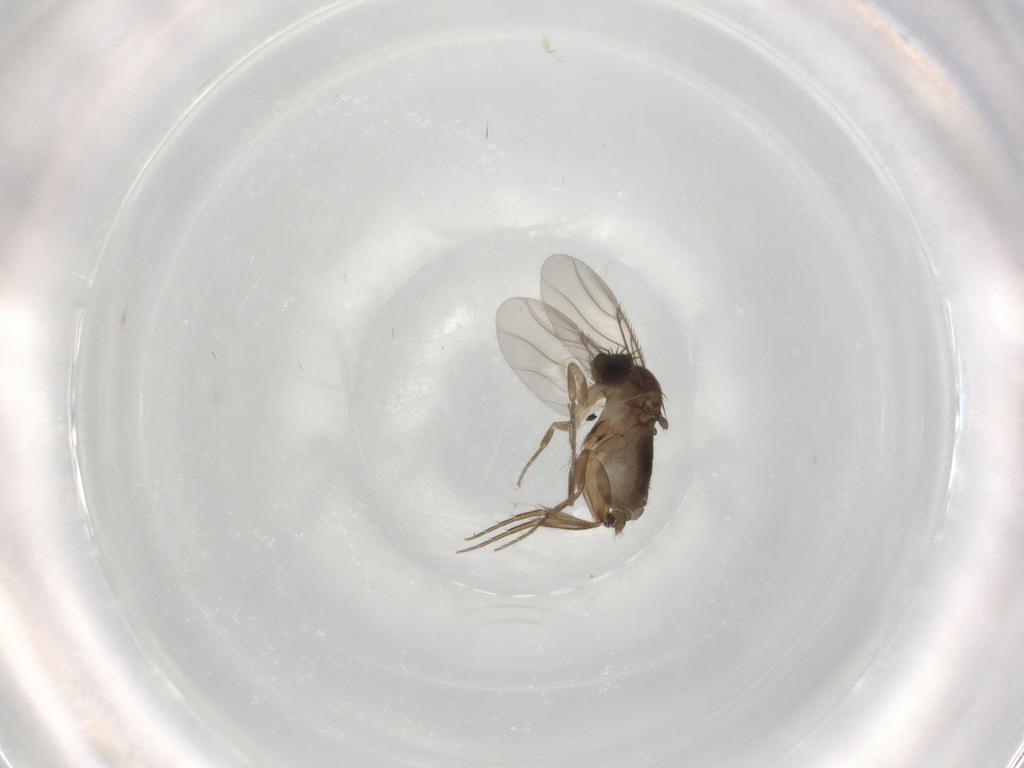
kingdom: Animalia
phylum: Arthropoda
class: Insecta
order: Diptera
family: Phoridae
